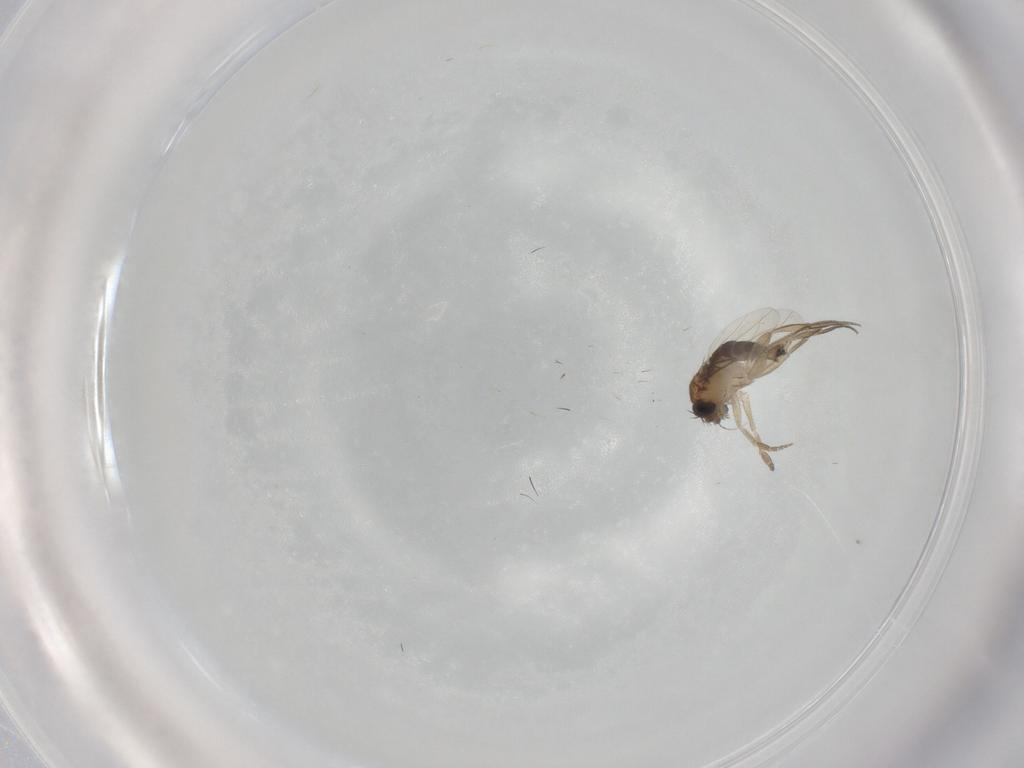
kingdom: Animalia
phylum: Arthropoda
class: Insecta
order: Diptera
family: Phoridae
